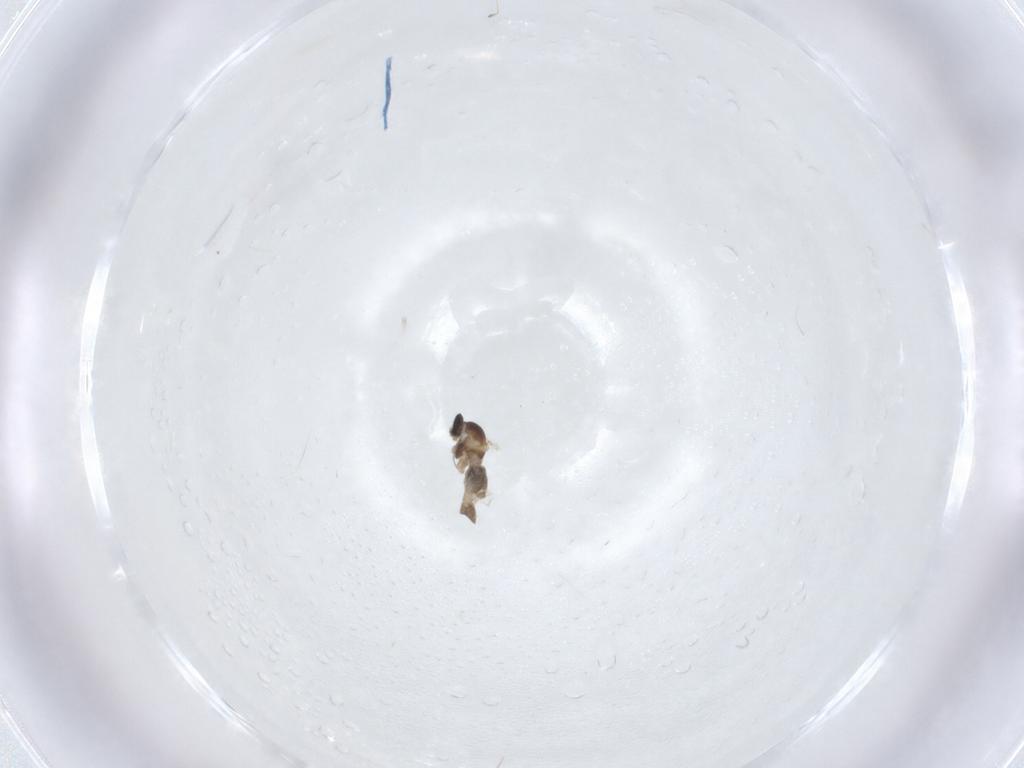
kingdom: Animalia
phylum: Arthropoda
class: Insecta
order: Diptera
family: Cecidomyiidae
